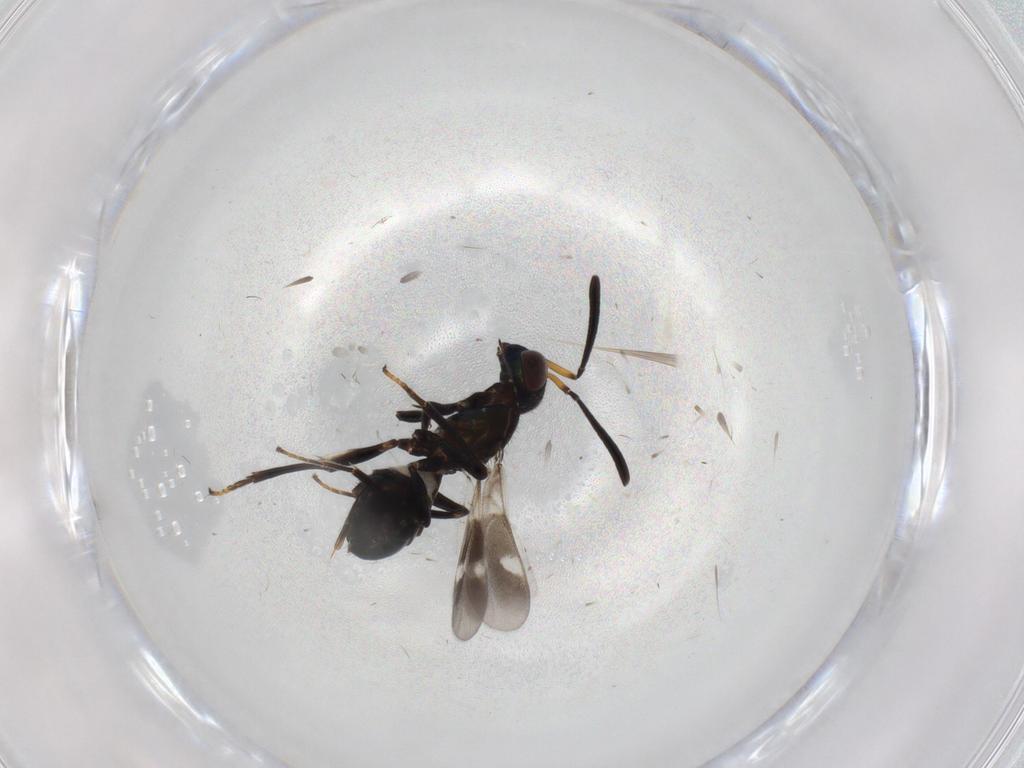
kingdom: Animalia
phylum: Arthropoda
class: Insecta
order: Hymenoptera
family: Eupelmidae
